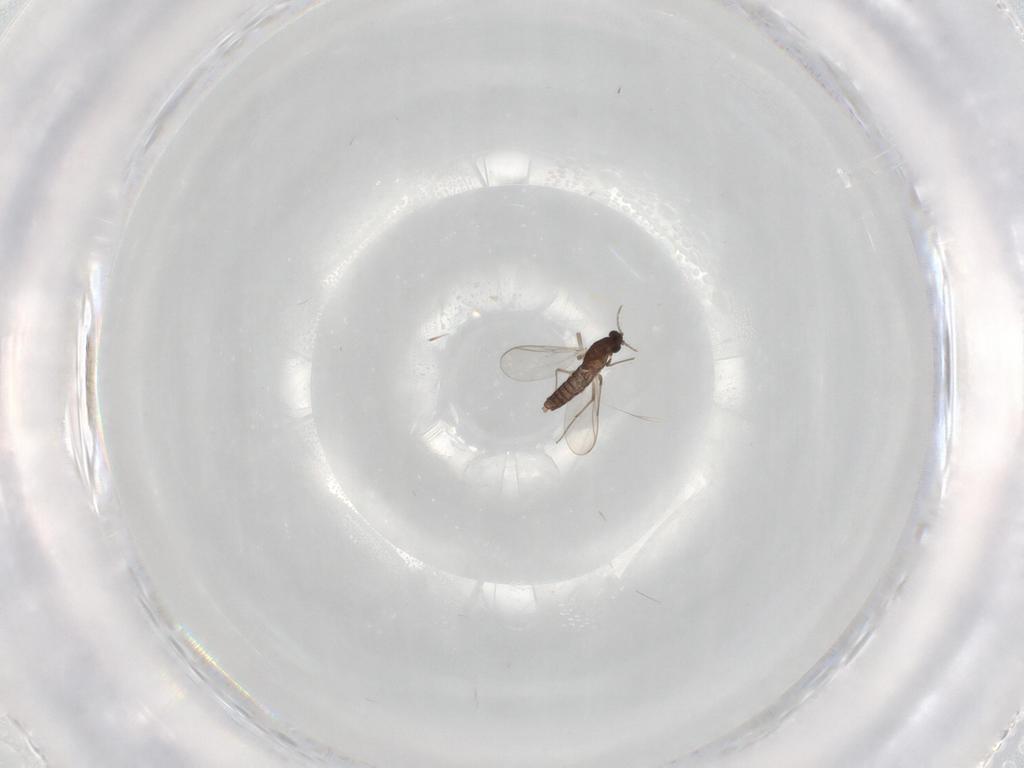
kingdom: Animalia
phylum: Arthropoda
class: Insecta
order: Diptera
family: Chironomidae
